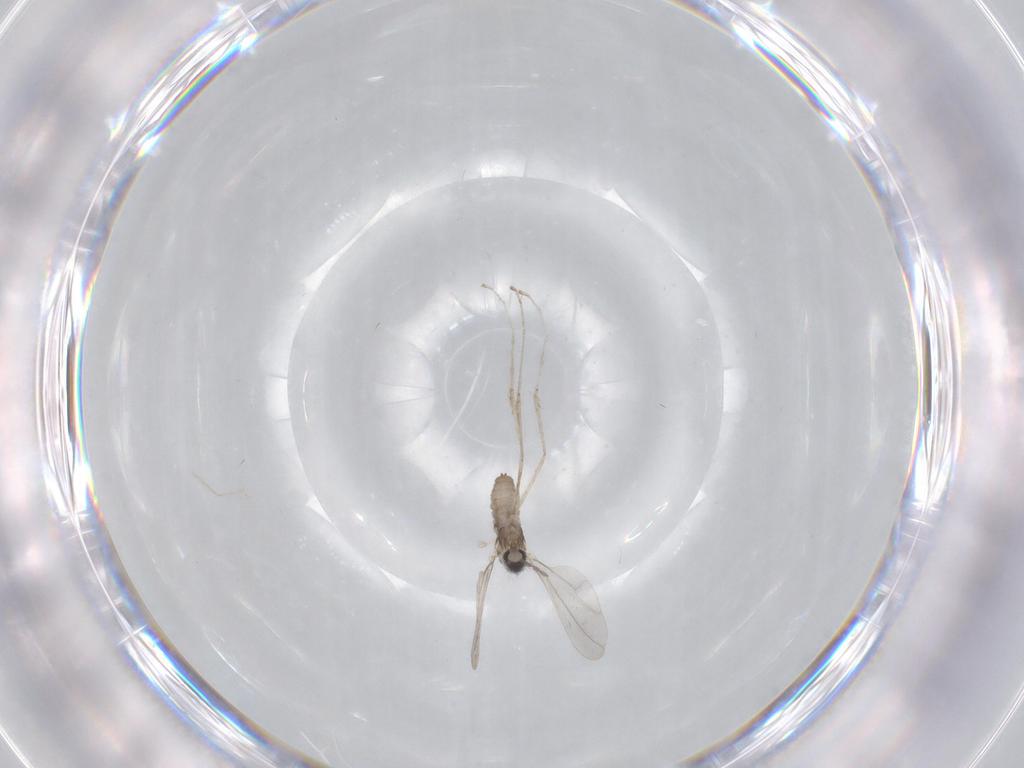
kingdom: Animalia
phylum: Arthropoda
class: Insecta
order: Diptera
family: Cecidomyiidae
